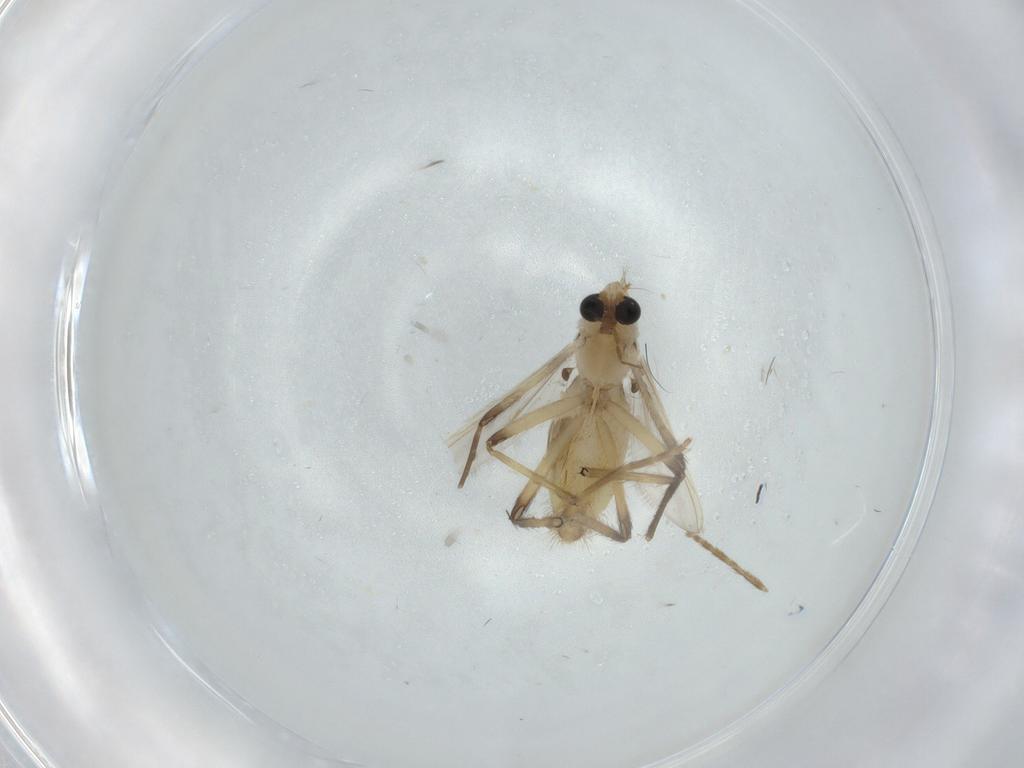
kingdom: Animalia
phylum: Arthropoda
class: Insecta
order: Diptera
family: Chironomidae
